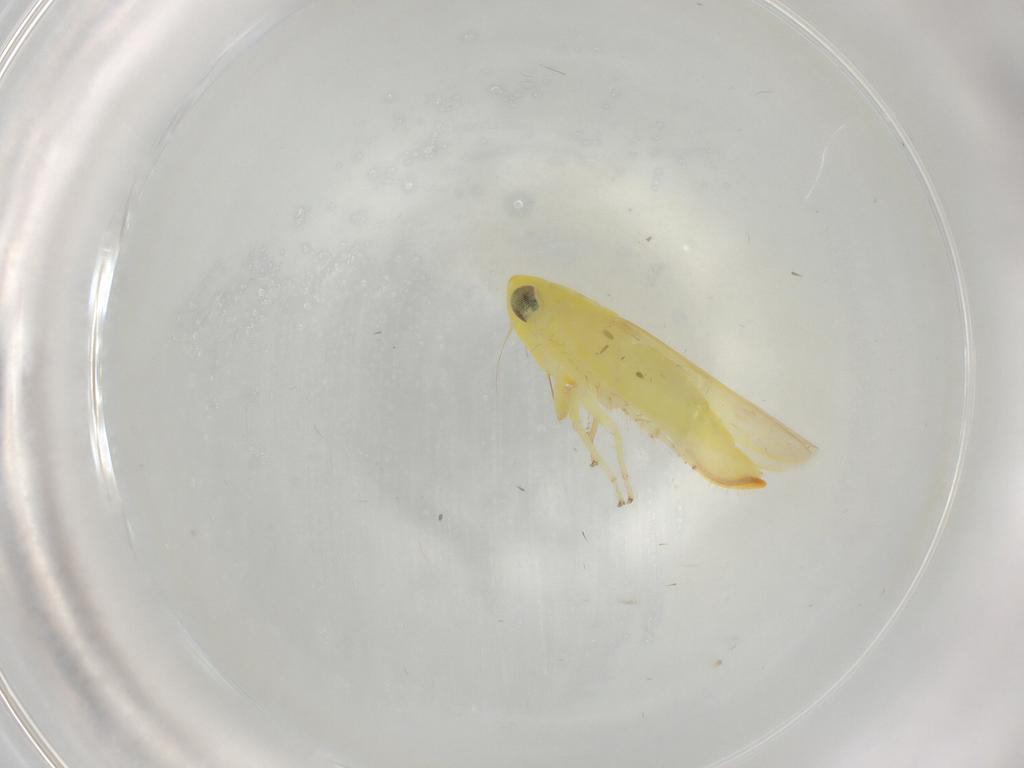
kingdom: Animalia
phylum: Arthropoda
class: Insecta
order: Hemiptera
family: Cicadellidae
